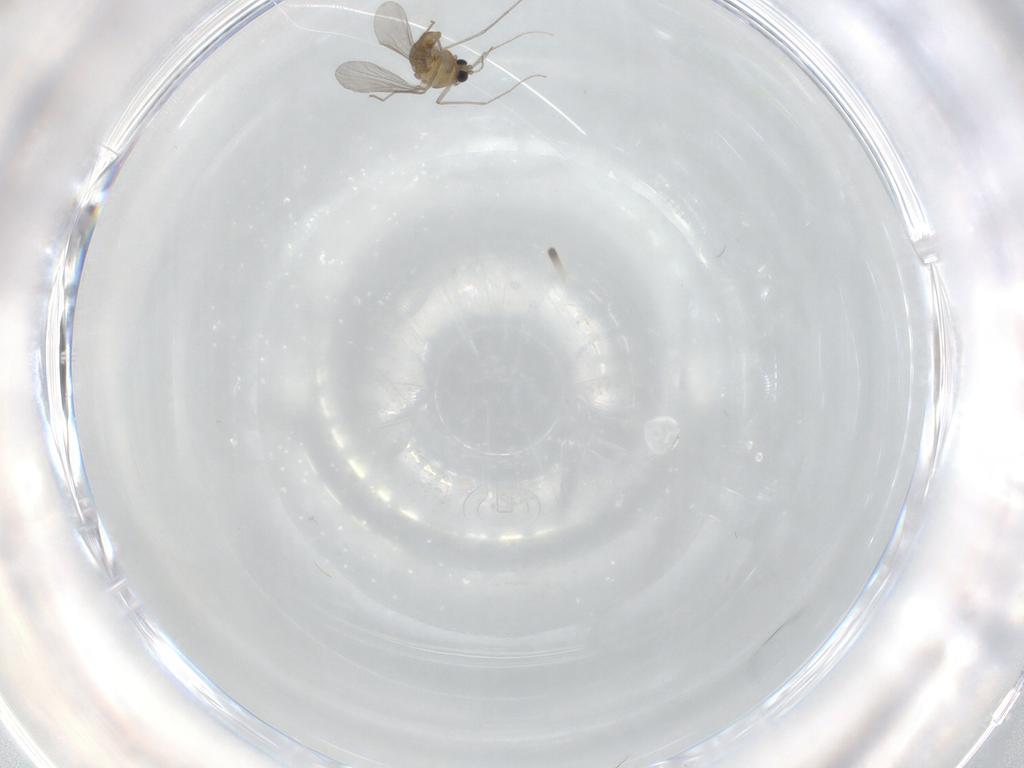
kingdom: Animalia
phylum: Arthropoda
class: Insecta
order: Diptera
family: Chironomidae
